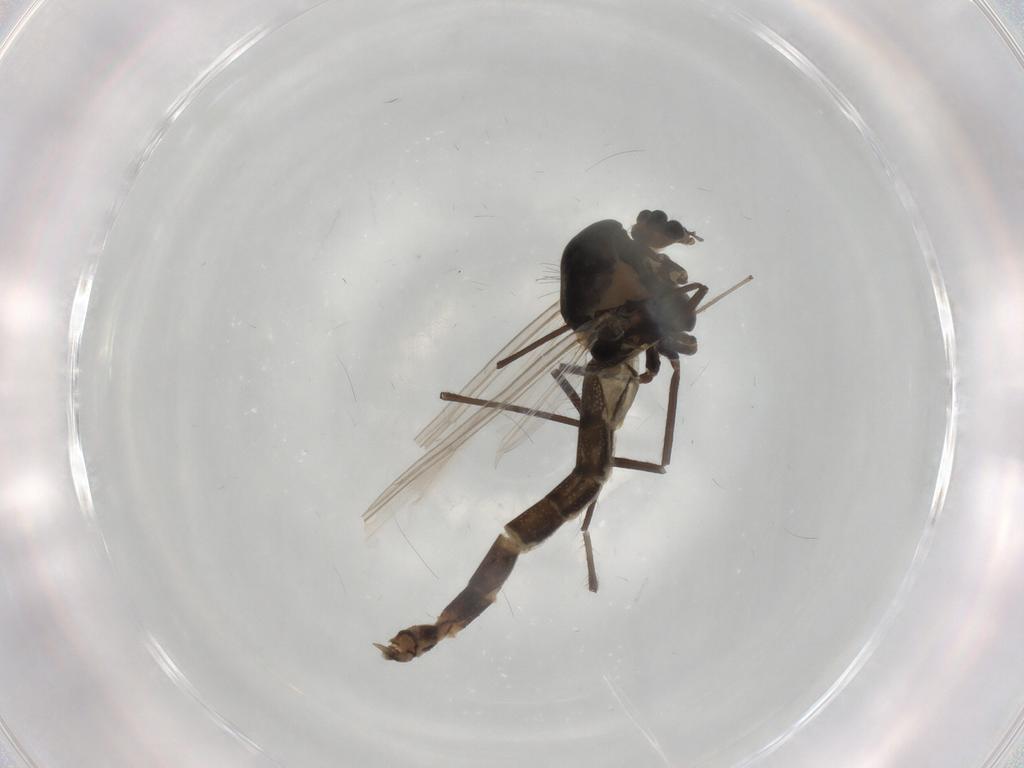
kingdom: Animalia
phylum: Arthropoda
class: Insecta
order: Diptera
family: Chironomidae
